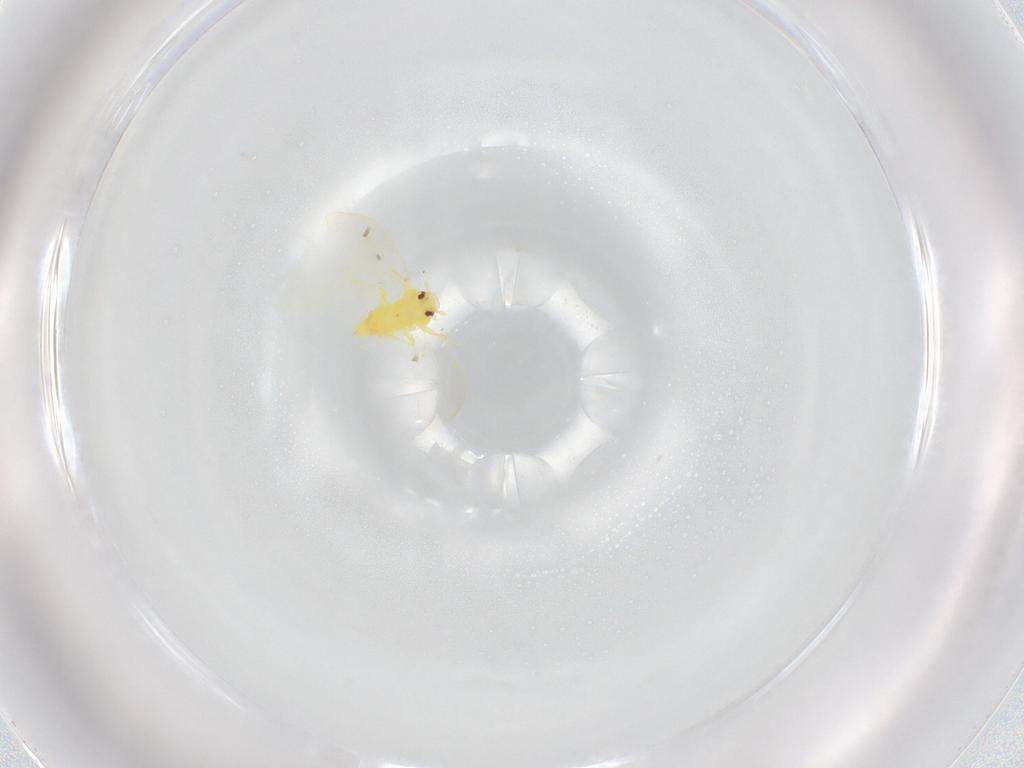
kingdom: Animalia
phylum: Arthropoda
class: Insecta
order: Hemiptera
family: Aleyrodidae
